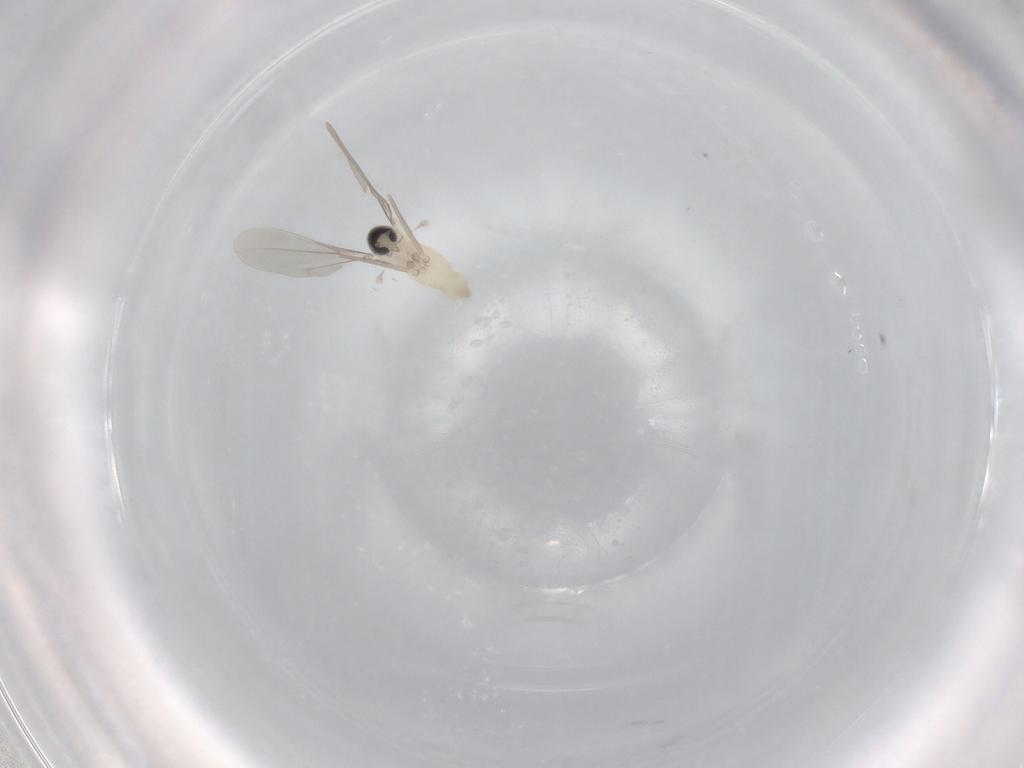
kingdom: Animalia
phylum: Arthropoda
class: Insecta
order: Diptera
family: Cecidomyiidae
